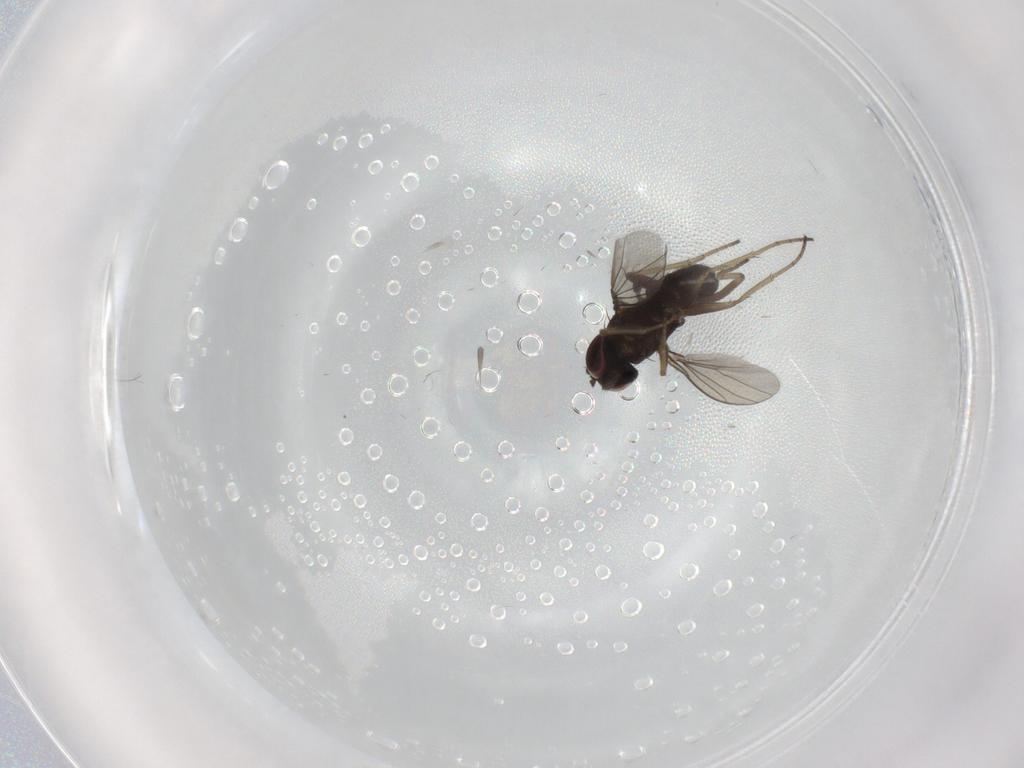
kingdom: Animalia
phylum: Arthropoda
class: Insecta
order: Diptera
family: Dolichopodidae
